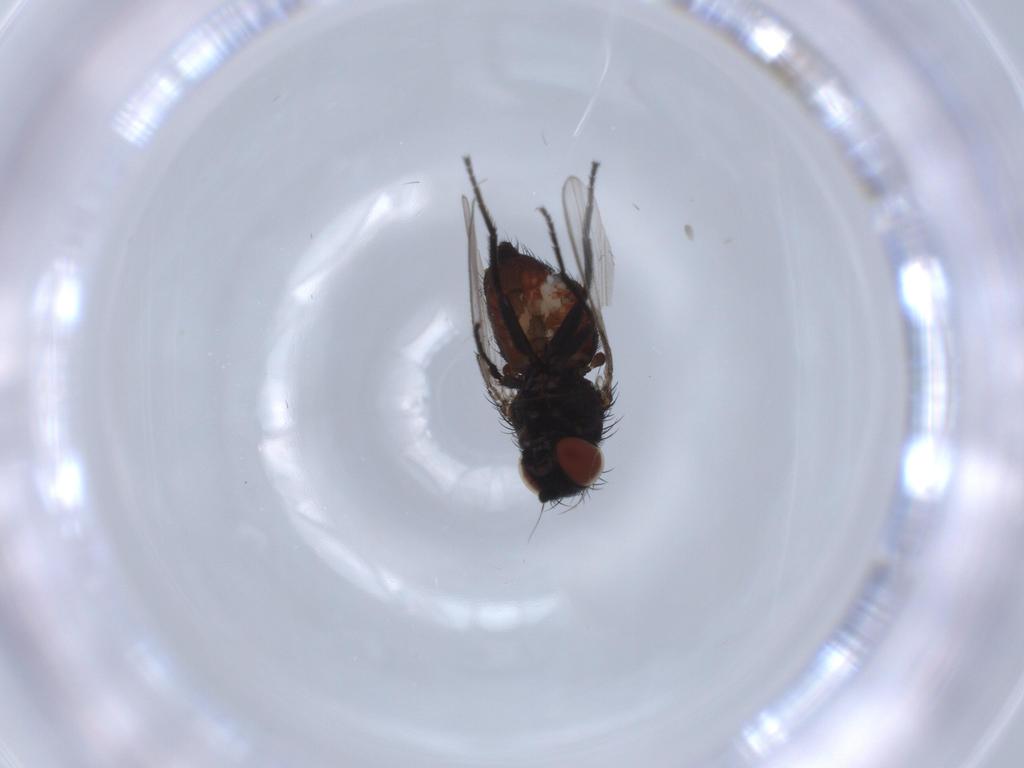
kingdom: Animalia
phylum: Arthropoda
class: Insecta
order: Diptera
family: Milichiidae
